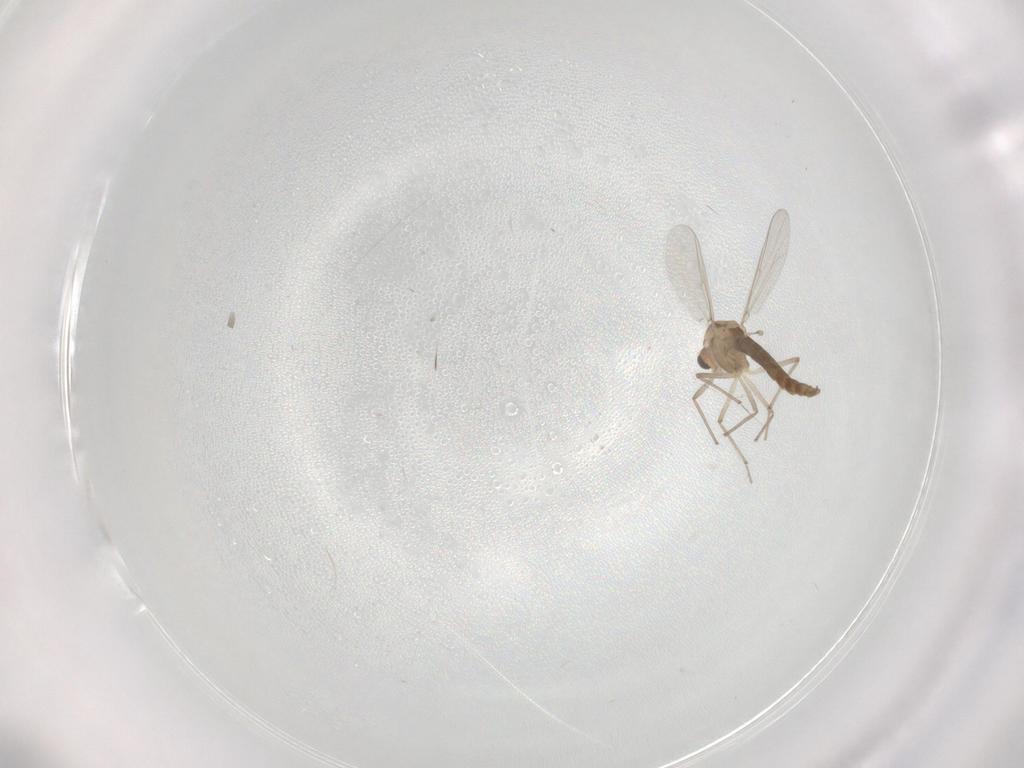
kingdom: Animalia
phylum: Arthropoda
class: Insecta
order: Diptera
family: Chironomidae
